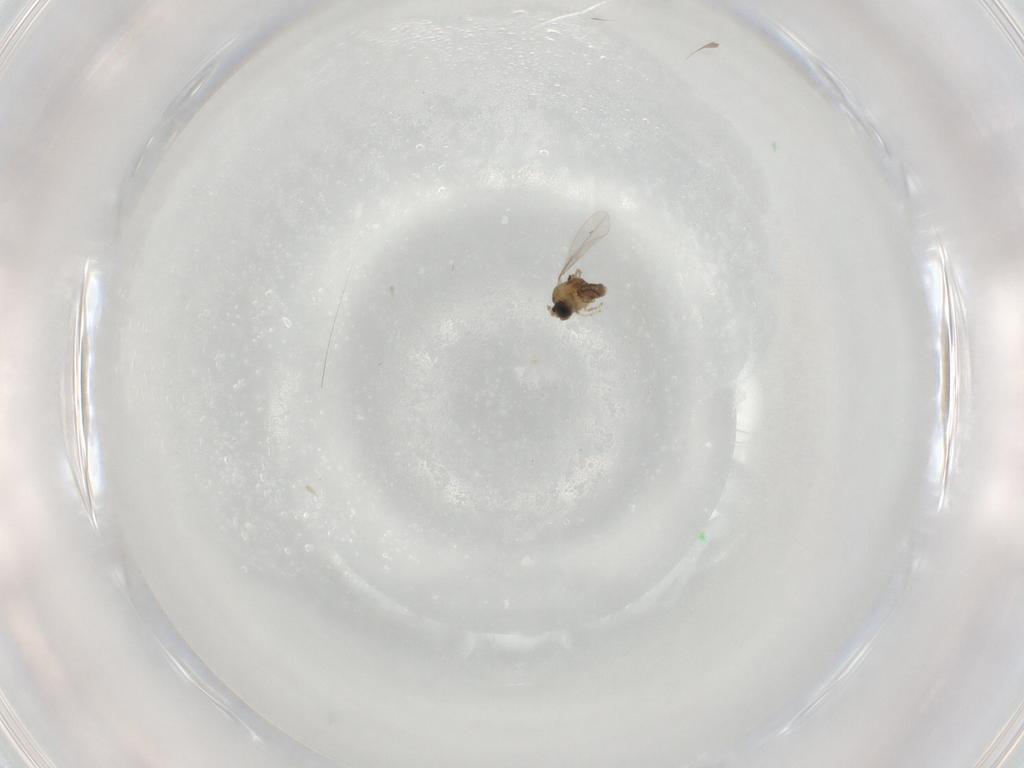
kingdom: Animalia
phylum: Arthropoda
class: Insecta
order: Diptera
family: Cecidomyiidae
